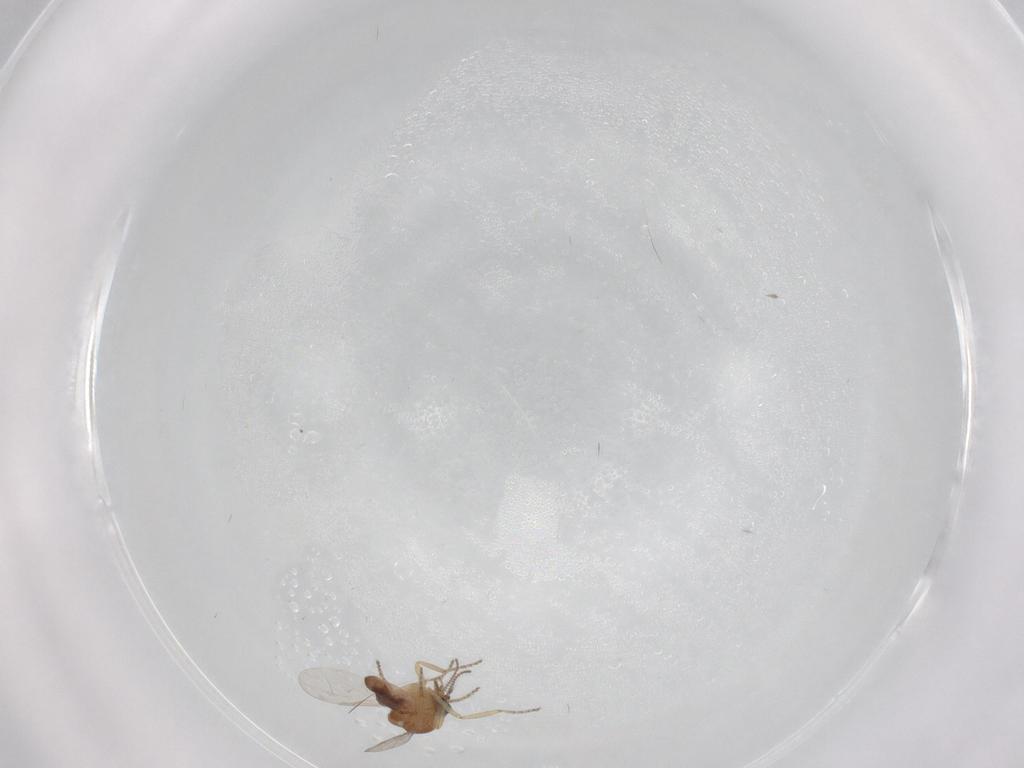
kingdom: Animalia
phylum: Arthropoda
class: Insecta
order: Diptera
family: Ceratopogonidae
